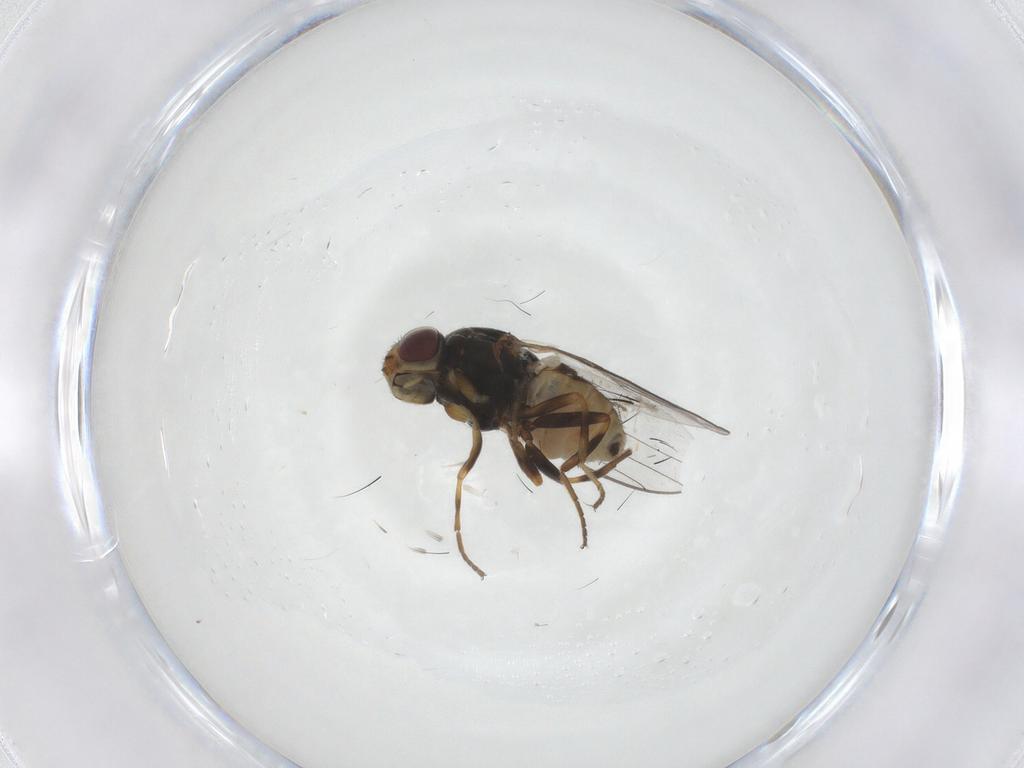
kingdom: Animalia
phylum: Arthropoda
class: Insecta
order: Diptera
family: Chloropidae
